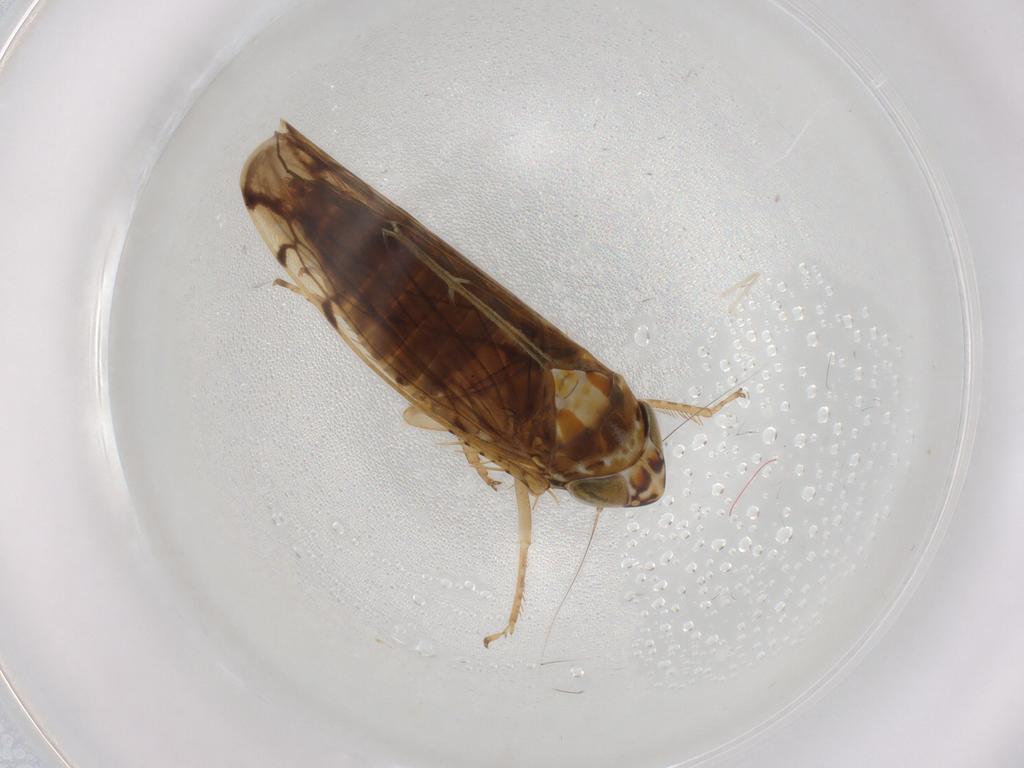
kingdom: Animalia
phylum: Arthropoda
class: Insecta
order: Hemiptera
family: Cicadellidae
